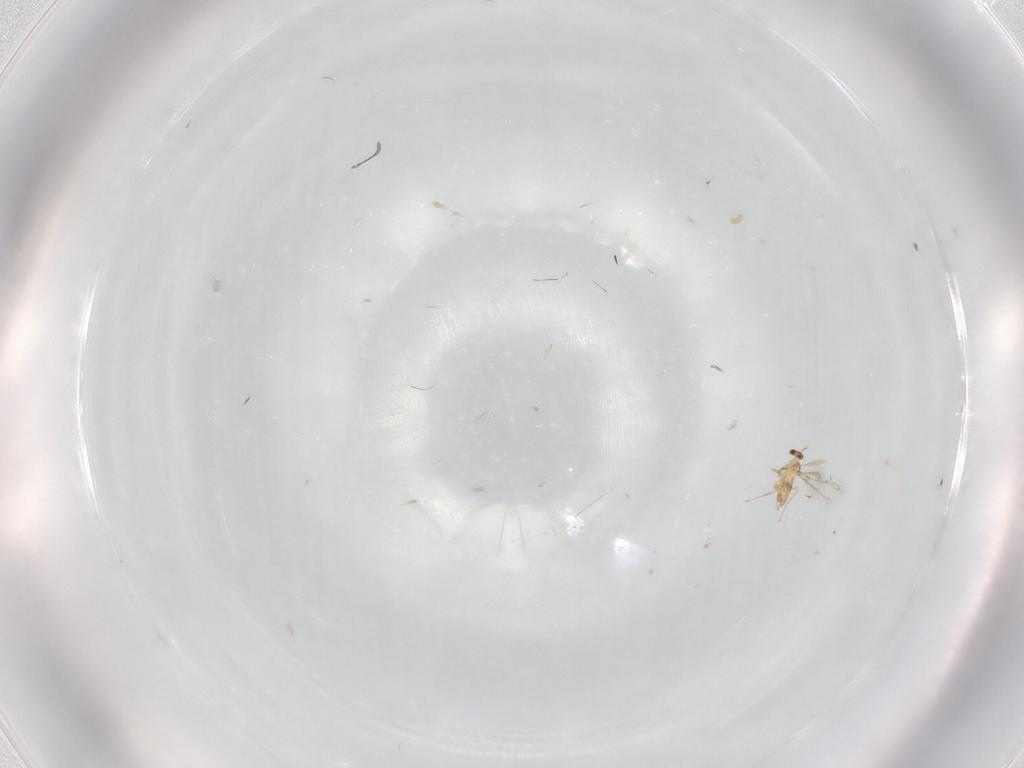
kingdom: Animalia
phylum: Arthropoda
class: Insecta
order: Hymenoptera
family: Mymaridae
